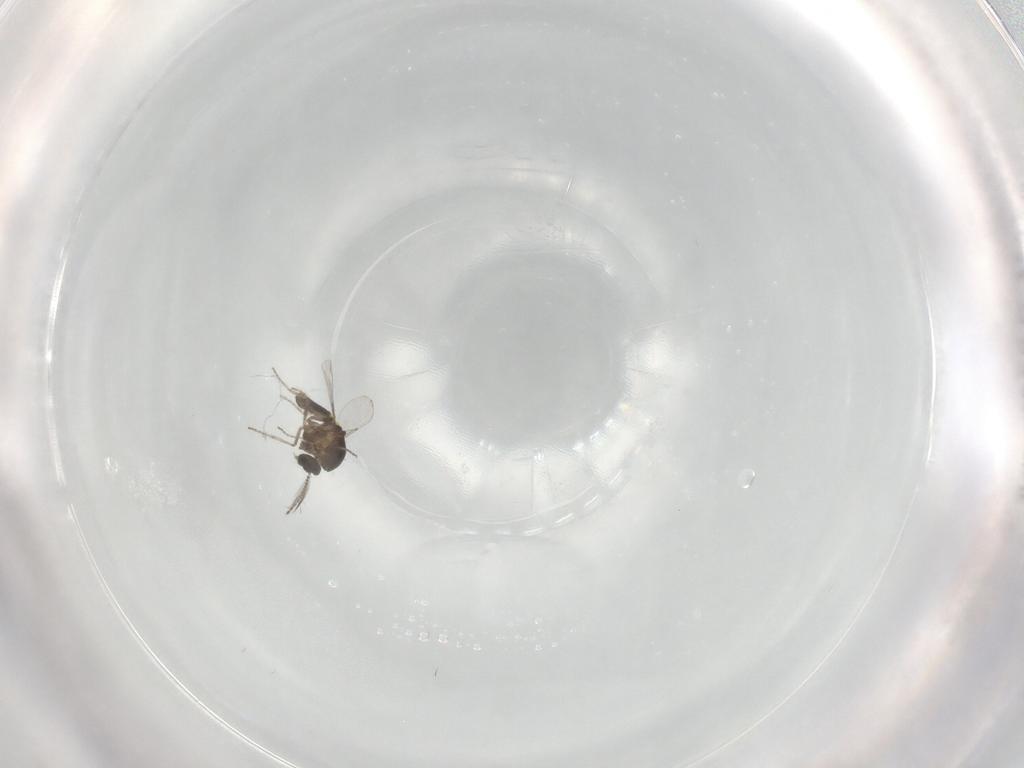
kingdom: Animalia
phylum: Arthropoda
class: Insecta
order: Diptera
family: Ceratopogonidae
